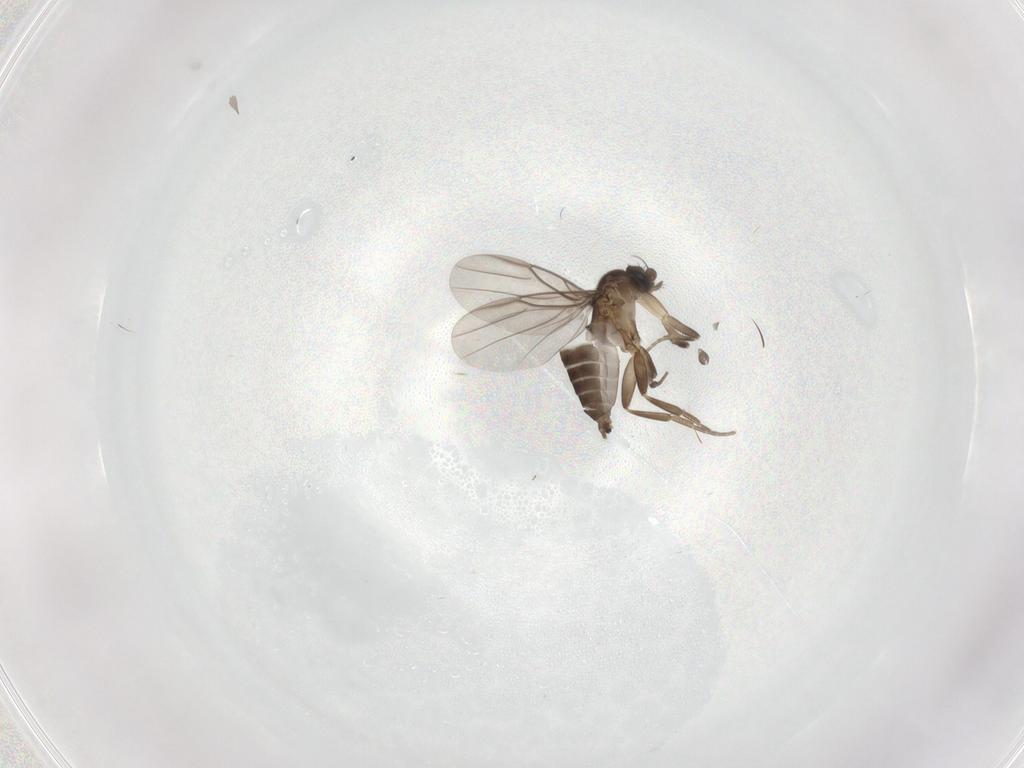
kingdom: Animalia
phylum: Arthropoda
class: Insecta
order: Diptera
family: Phoridae
